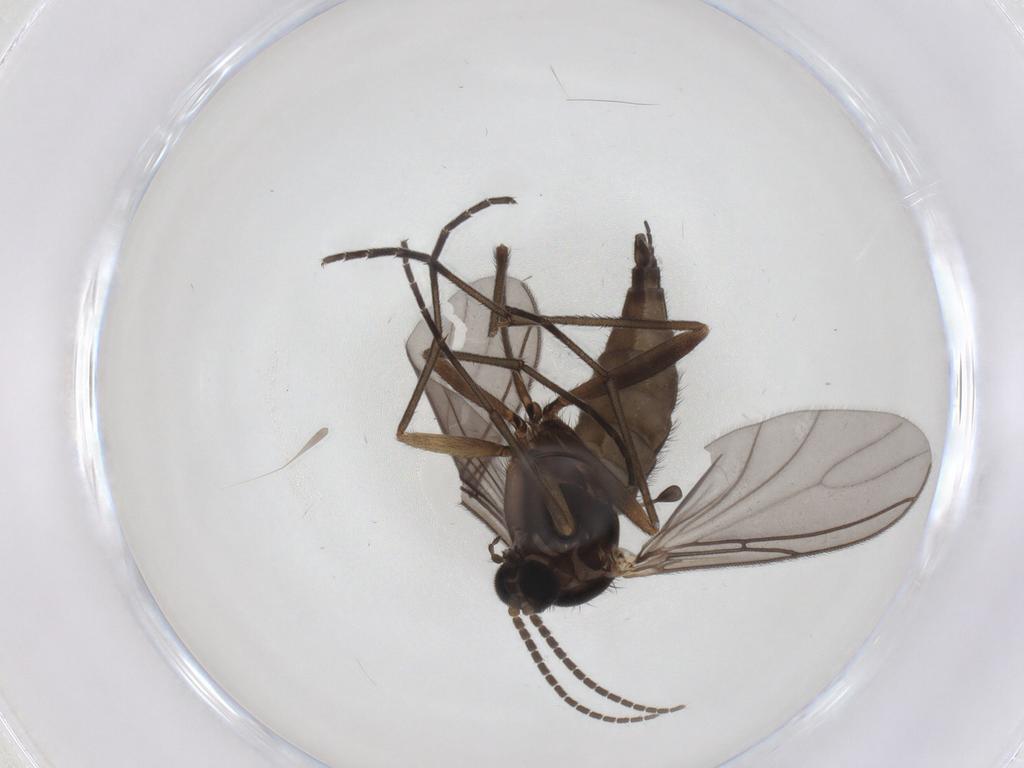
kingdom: Animalia
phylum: Arthropoda
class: Insecta
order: Diptera
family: Sciaridae
